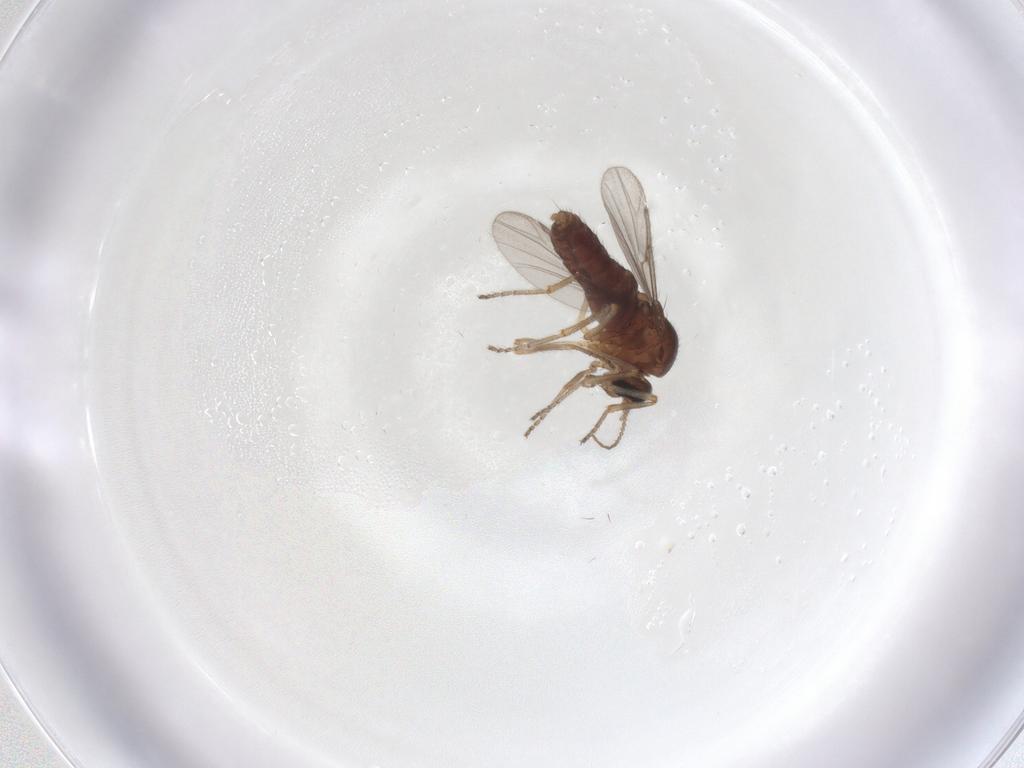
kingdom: Animalia
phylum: Arthropoda
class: Insecta
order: Diptera
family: Ceratopogonidae
